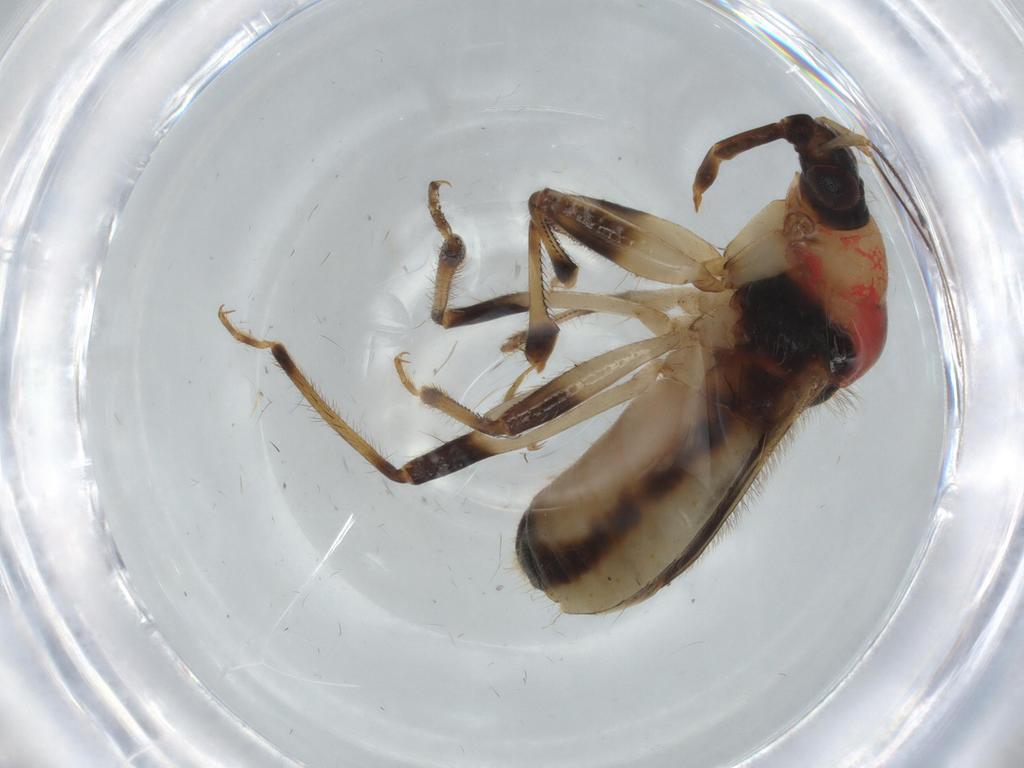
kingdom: Animalia
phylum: Arthropoda
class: Insecta
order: Hemiptera
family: Nabidae
